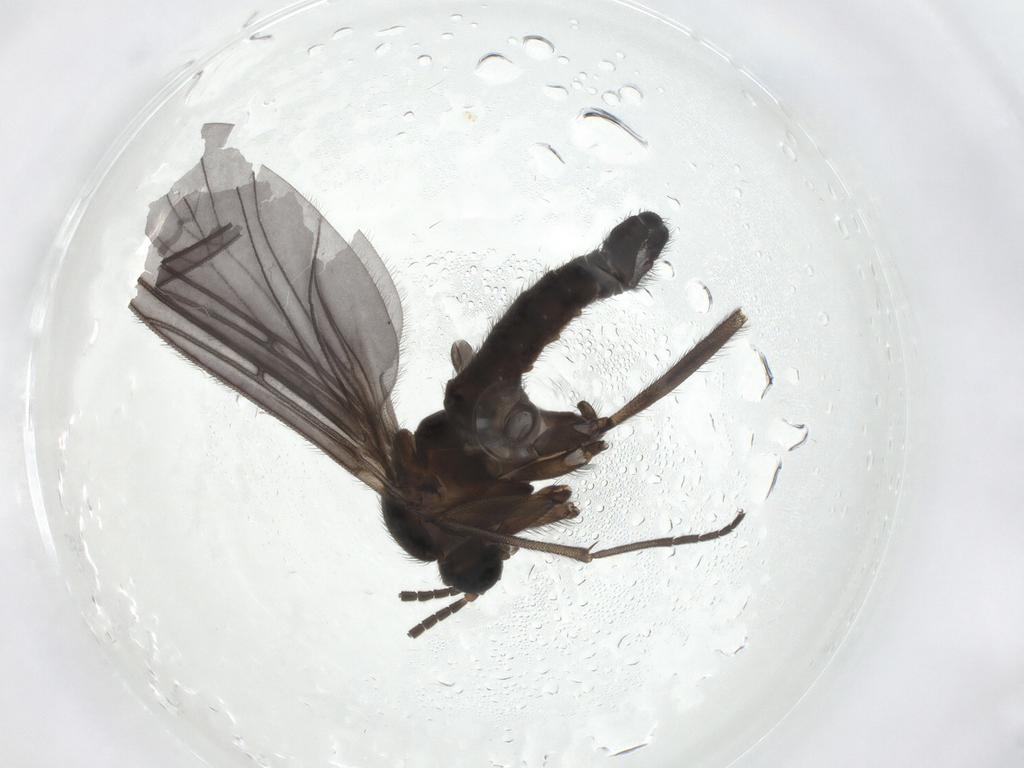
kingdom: Animalia
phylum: Arthropoda
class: Insecta
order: Diptera
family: Sciaridae
